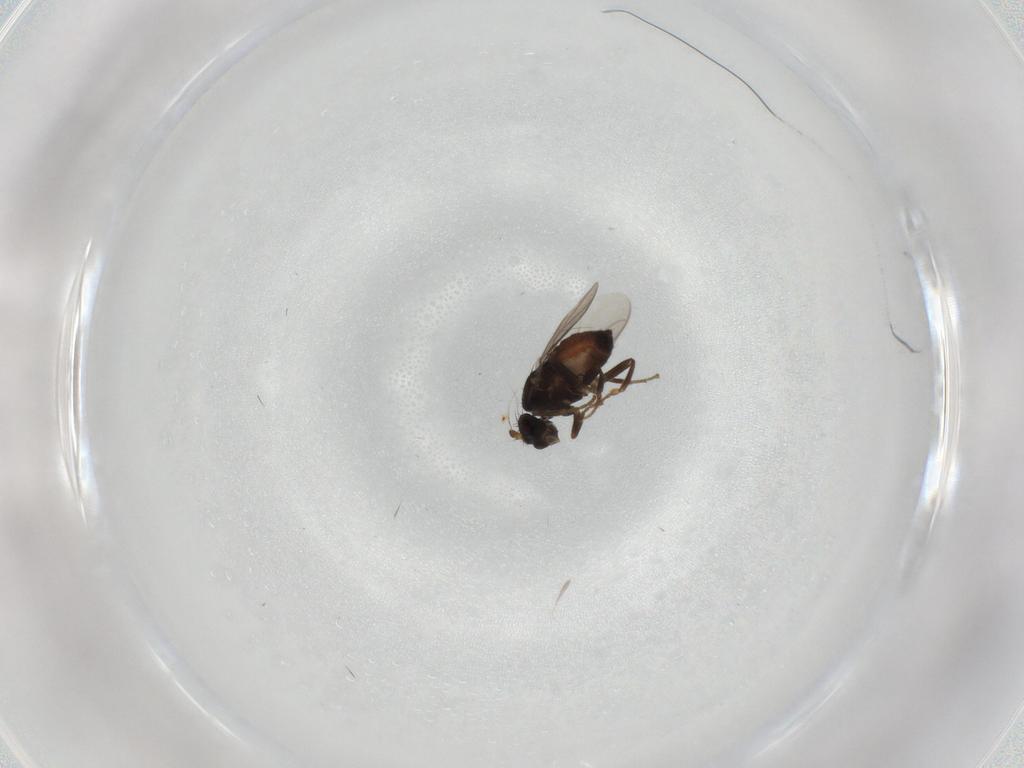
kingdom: Animalia
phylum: Arthropoda
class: Insecta
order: Diptera
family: Sphaeroceridae
